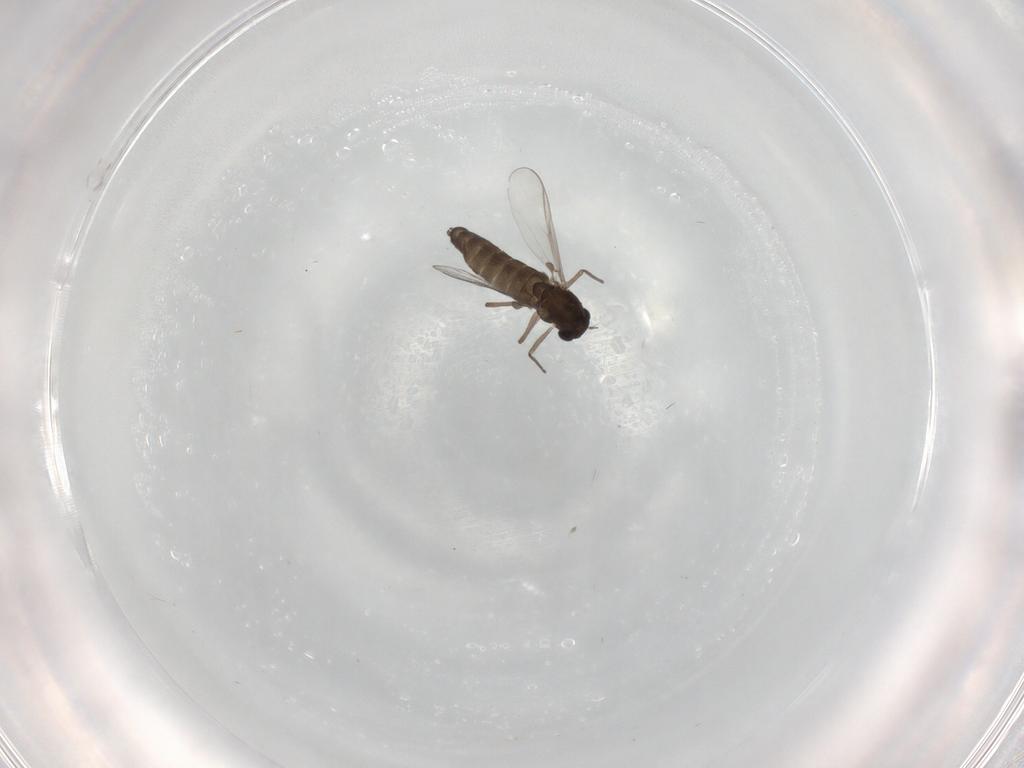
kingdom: Animalia
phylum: Arthropoda
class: Insecta
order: Diptera
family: Chironomidae
